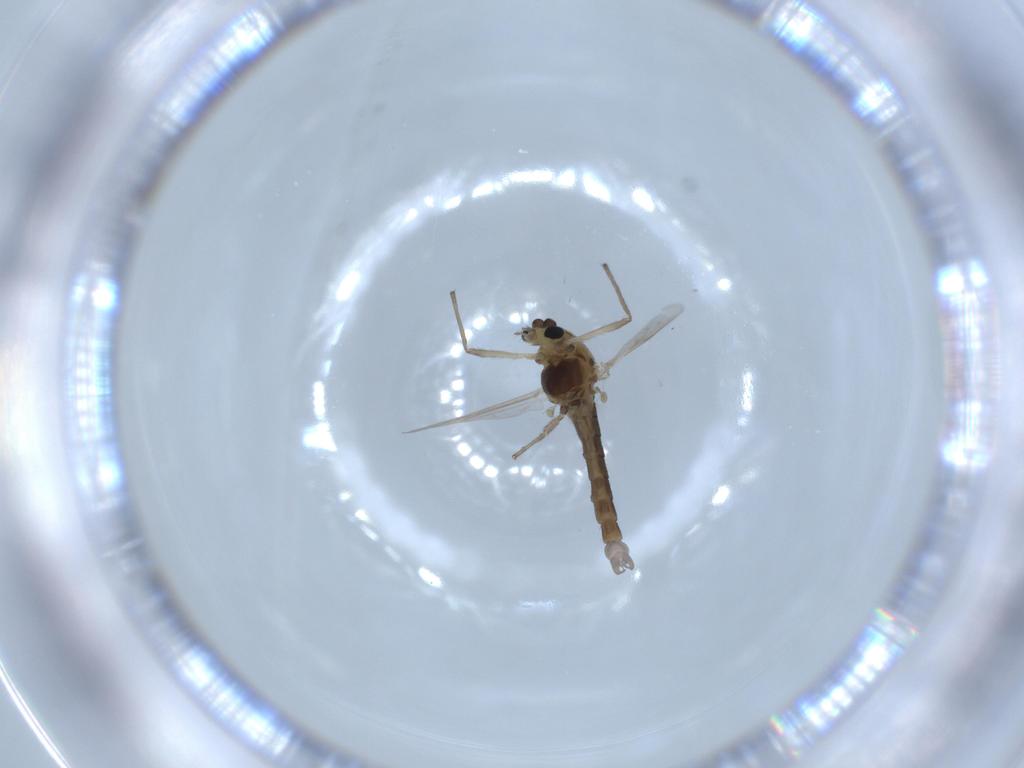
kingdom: Animalia
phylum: Arthropoda
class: Insecta
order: Diptera
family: Chironomidae
